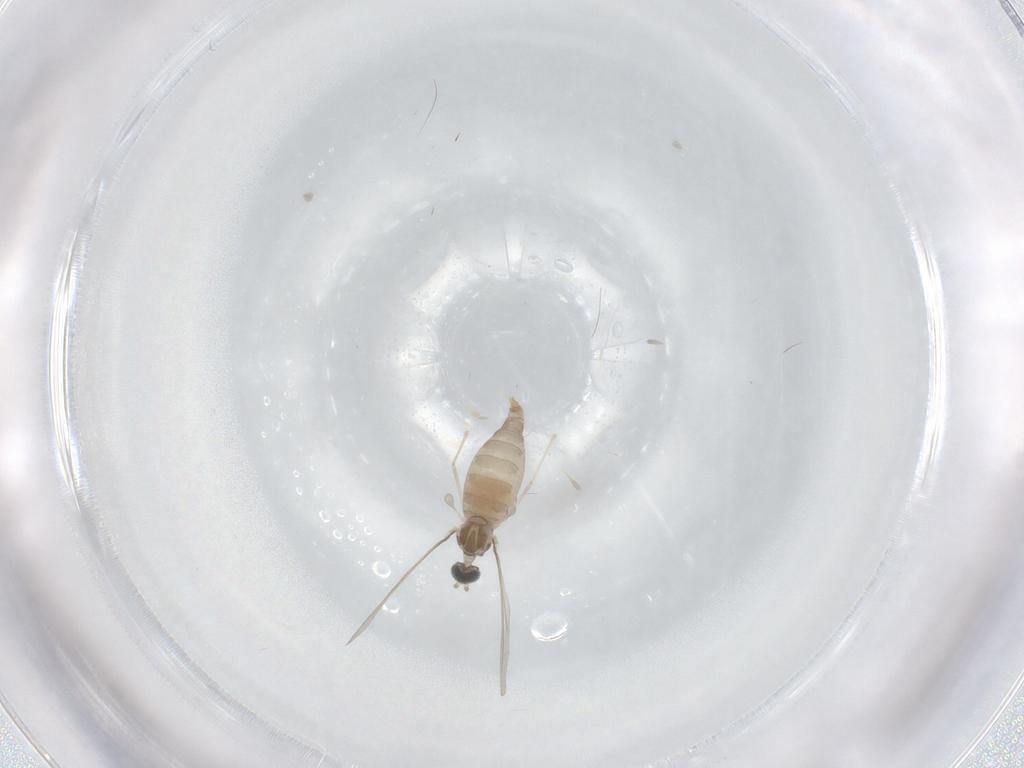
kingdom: Animalia
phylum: Arthropoda
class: Insecta
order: Diptera
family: Cecidomyiidae
